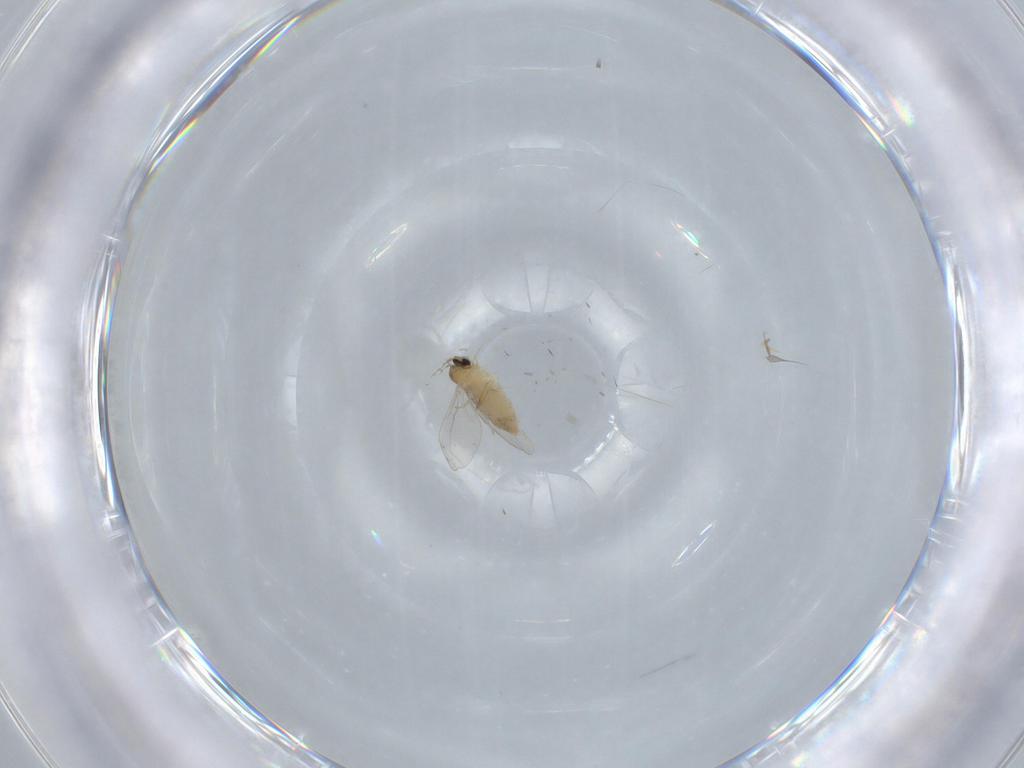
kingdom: Animalia
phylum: Arthropoda
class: Insecta
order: Diptera
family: Cecidomyiidae
